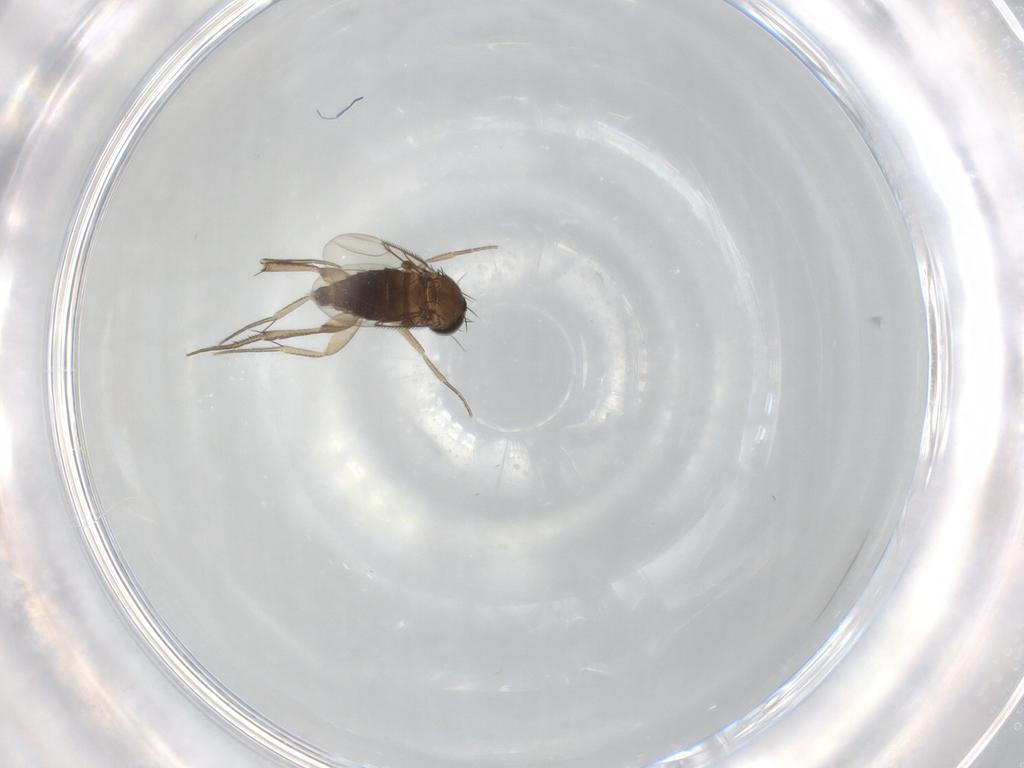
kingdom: Animalia
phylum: Arthropoda
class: Insecta
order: Diptera
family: Phoridae
